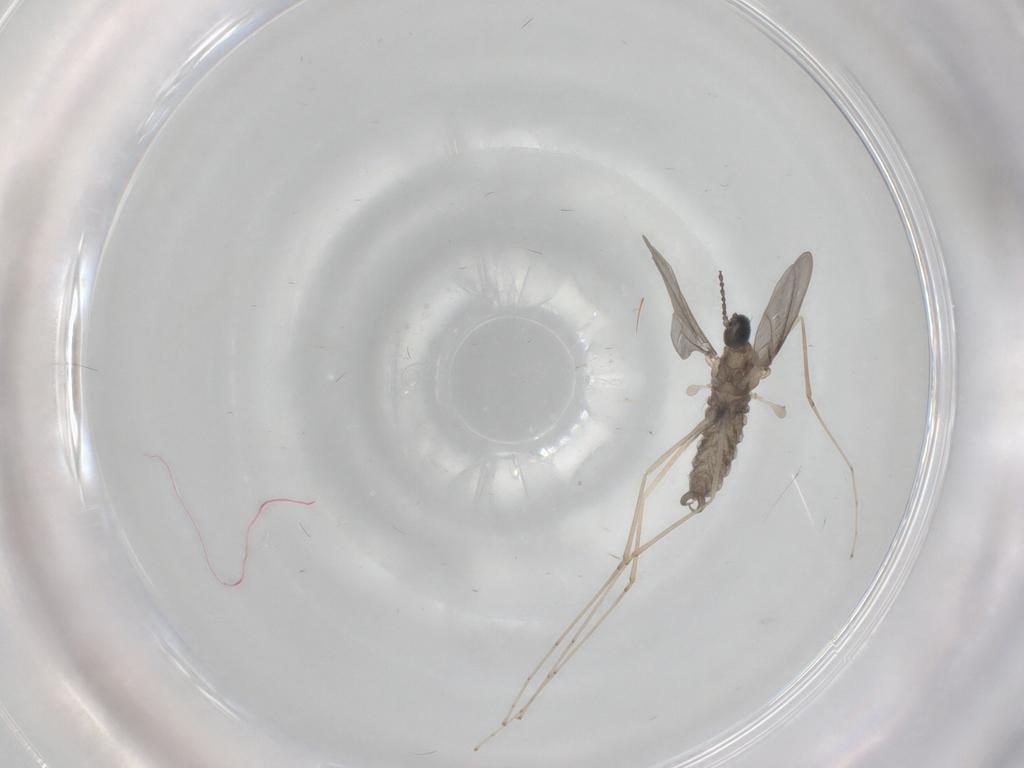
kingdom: Animalia
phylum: Arthropoda
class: Insecta
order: Diptera
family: Cecidomyiidae
